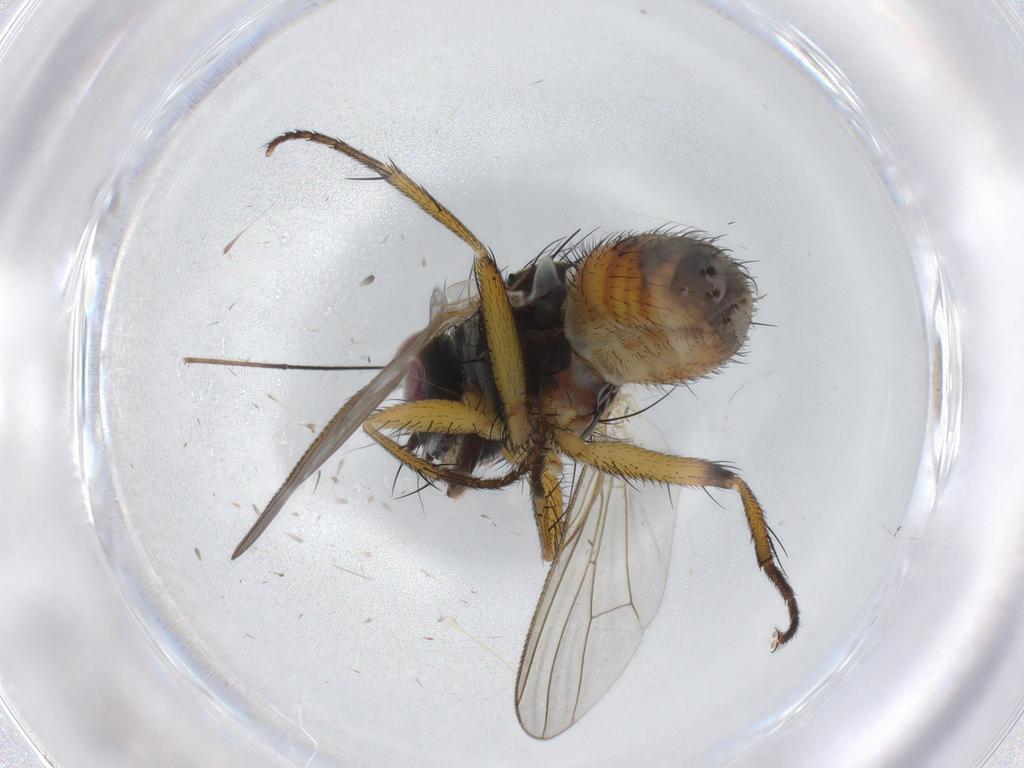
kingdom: Animalia
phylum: Arthropoda
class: Insecta
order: Diptera
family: Muscidae
